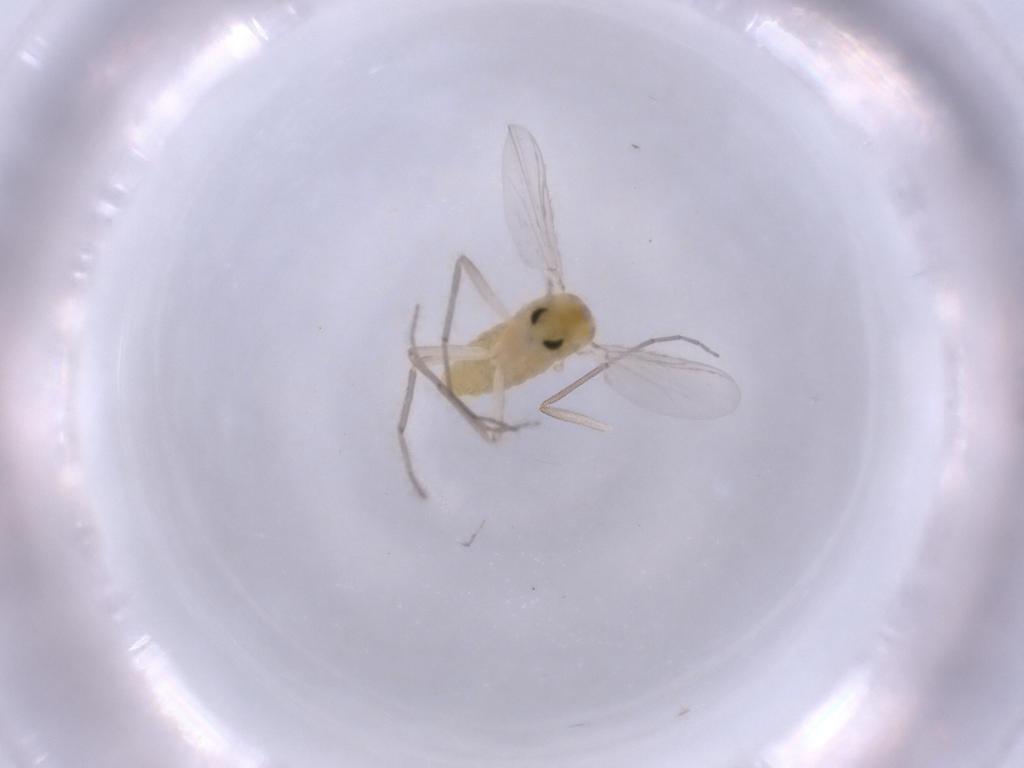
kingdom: Animalia
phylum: Arthropoda
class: Insecta
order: Diptera
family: Chironomidae
